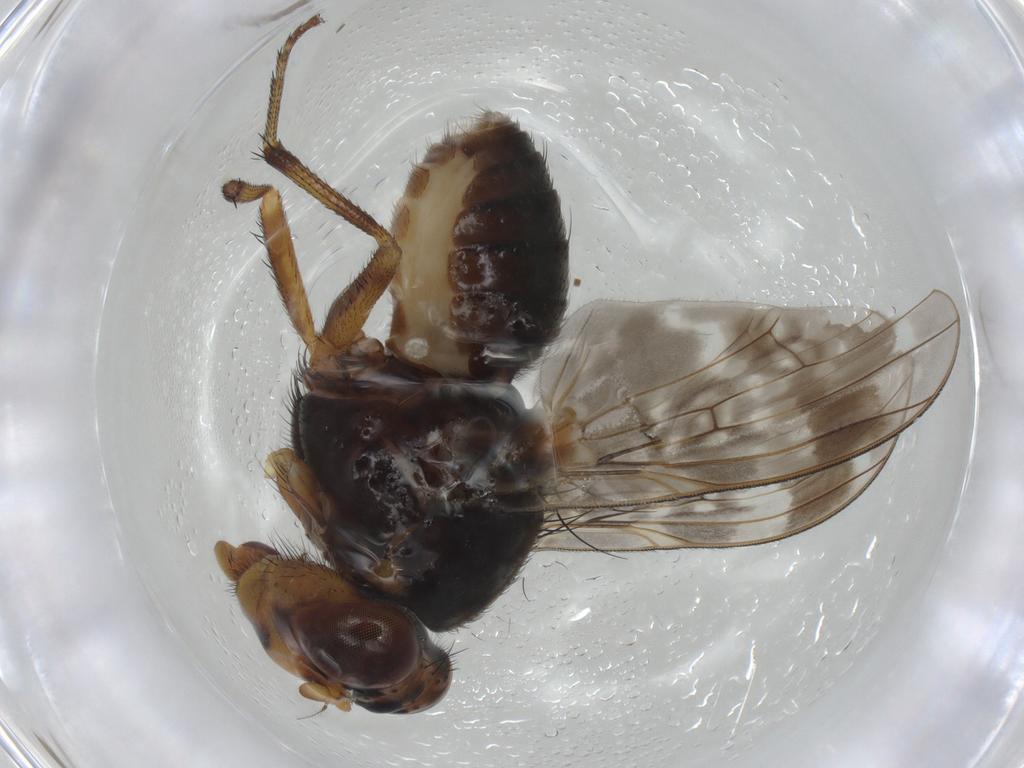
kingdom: Animalia
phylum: Arthropoda
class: Insecta
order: Diptera
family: Chironomidae
